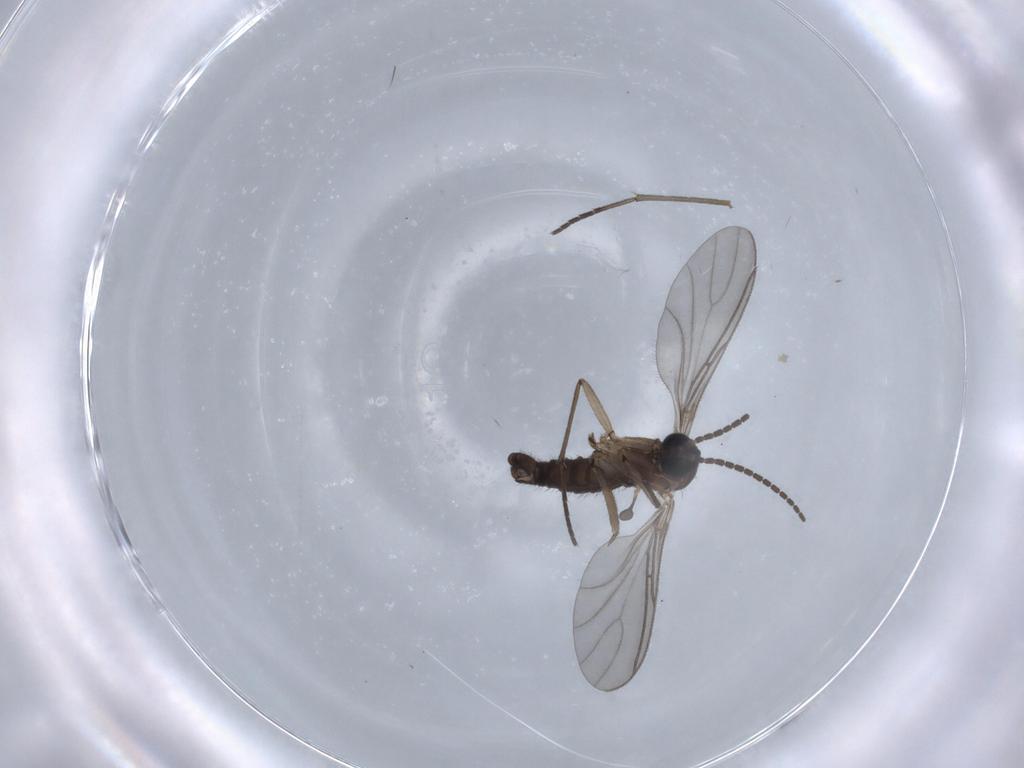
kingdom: Animalia
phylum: Arthropoda
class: Insecta
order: Diptera
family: Sciaridae
